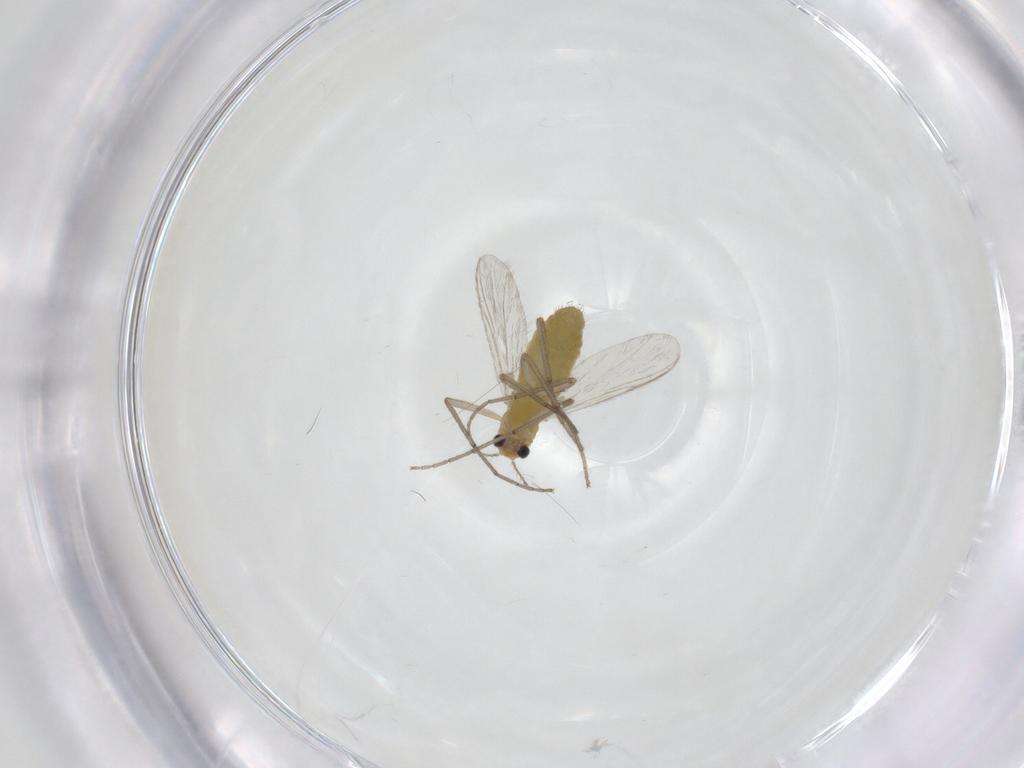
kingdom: Animalia
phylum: Arthropoda
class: Insecta
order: Diptera
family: Chironomidae
